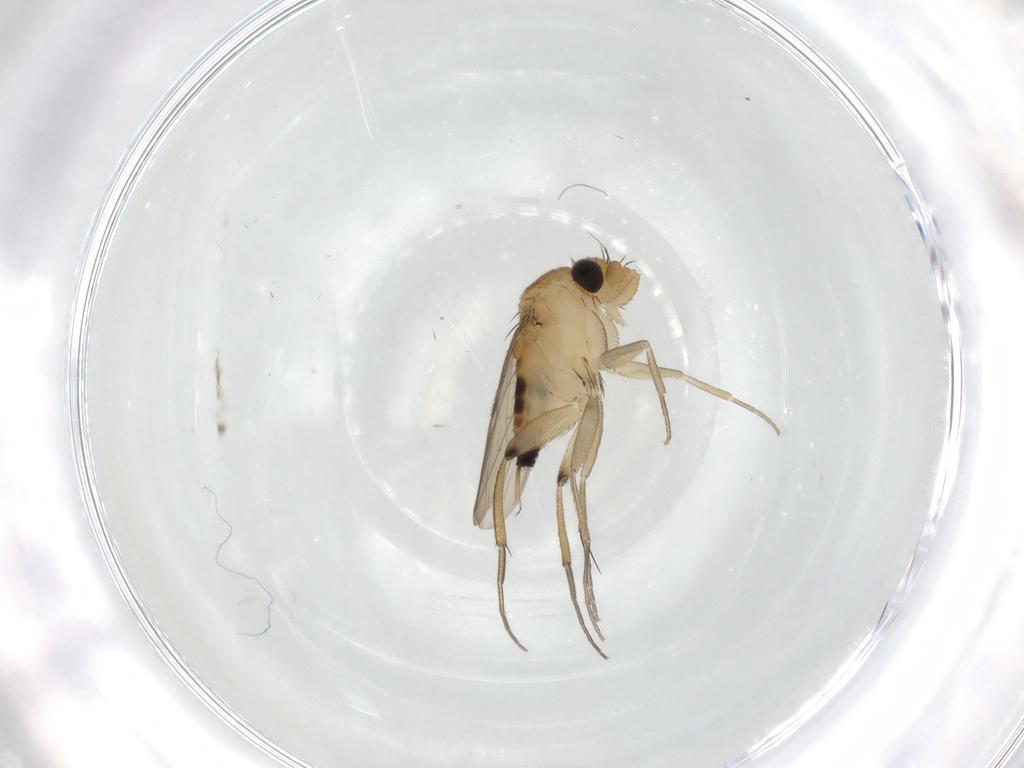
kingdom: Animalia
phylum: Arthropoda
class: Insecta
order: Diptera
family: Phoridae
